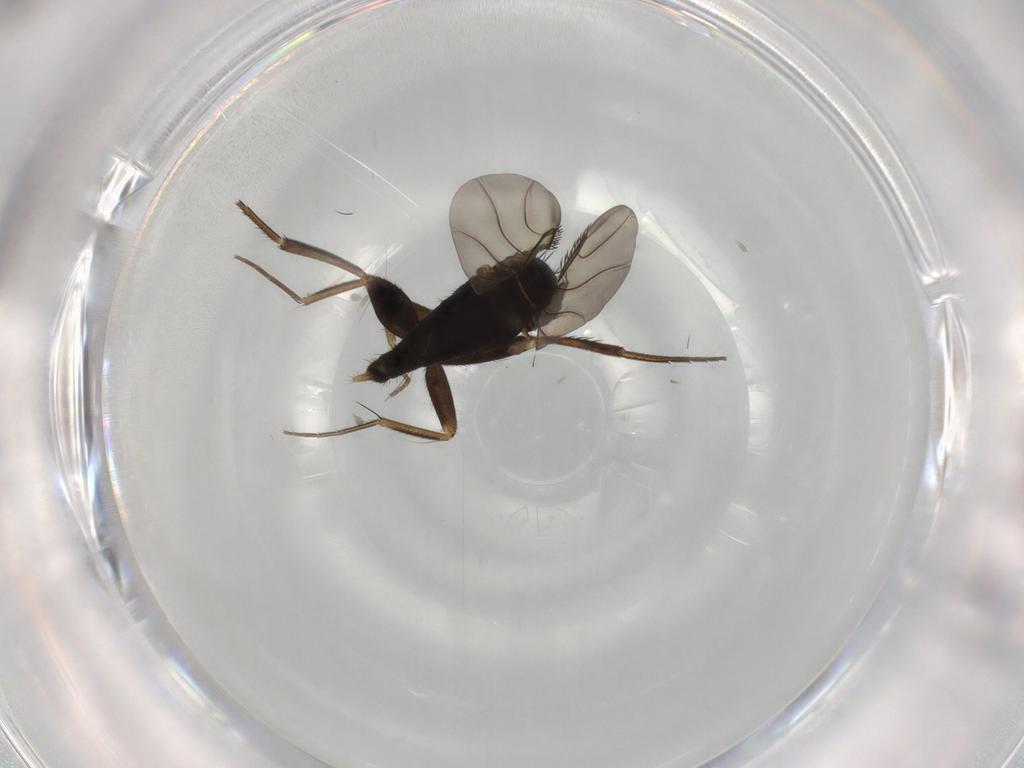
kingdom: Animalia
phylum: Arthropoda
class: Insecta
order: Diptera
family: Phoridae
